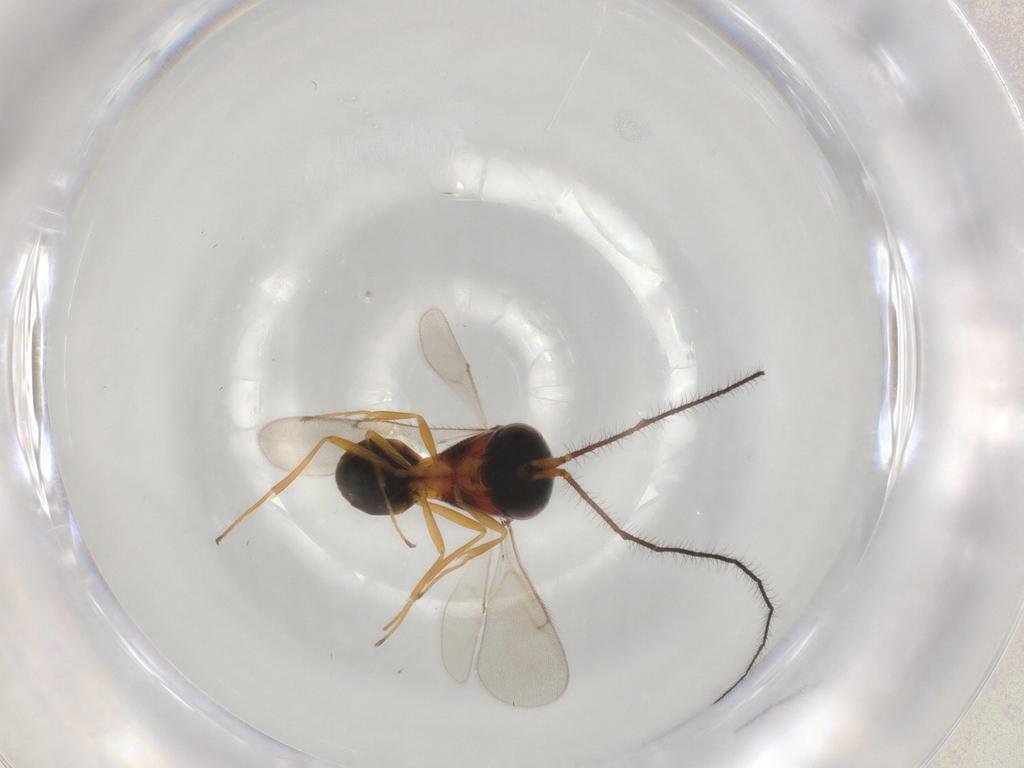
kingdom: Animalia
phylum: Arthropoda
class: Insecta
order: Hymenoptera
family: Scelionidae
